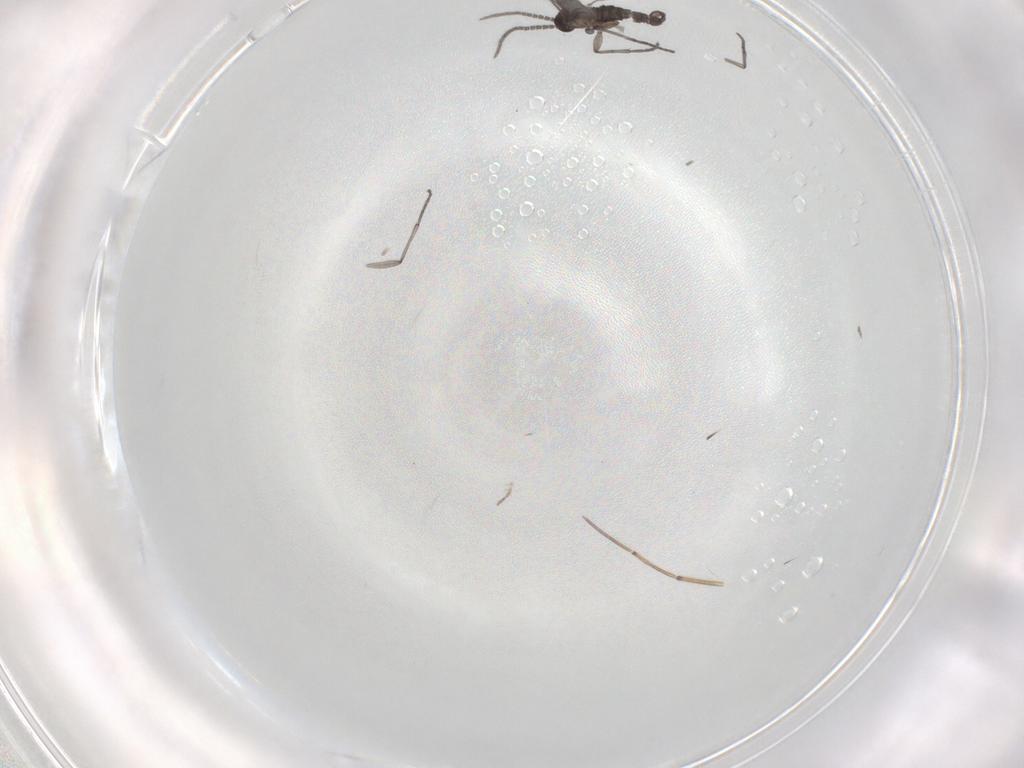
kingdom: Animalia
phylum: Arthropoda
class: Insecta
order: Diptera
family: Sciaridae
